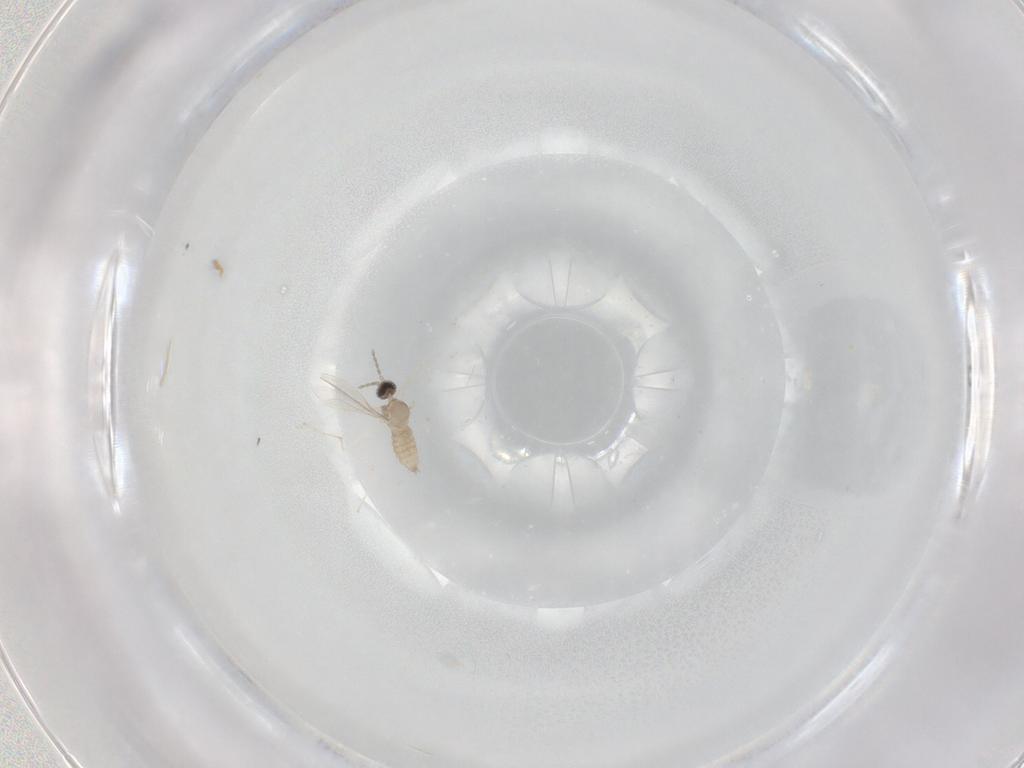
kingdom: Animalia
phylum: Arthropoda
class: Insecta
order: Diptera
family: Cecidomyiidae
